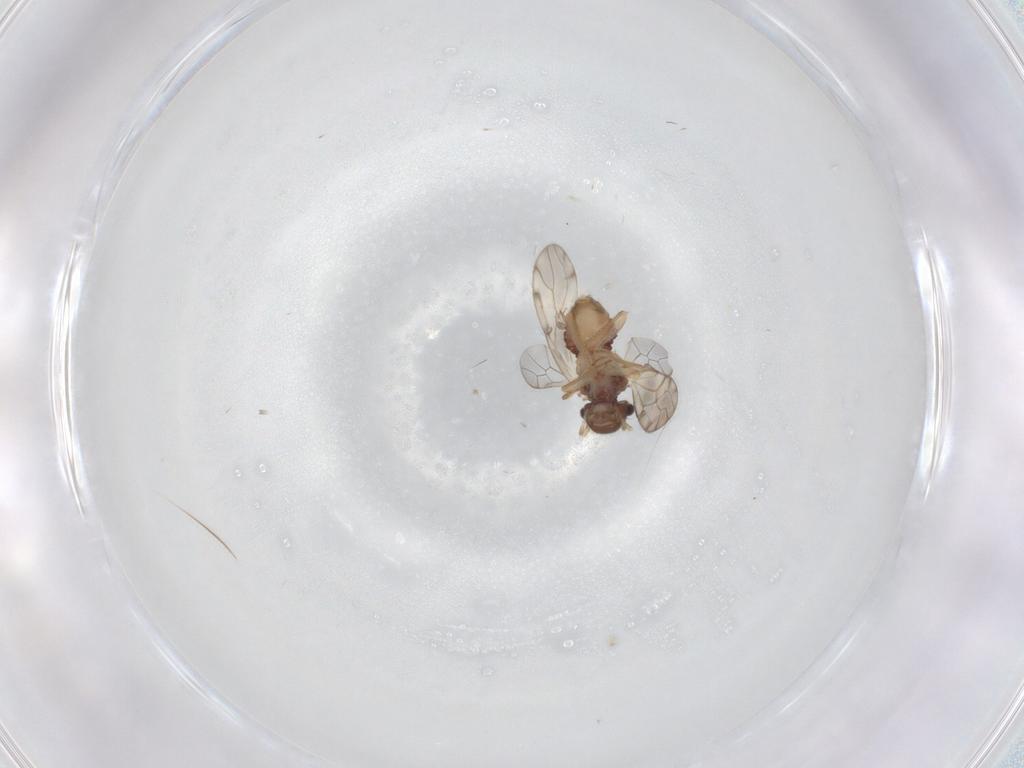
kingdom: Animalia
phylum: Arthropoda
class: Insecta
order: Psocodea
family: Peripsocidae
